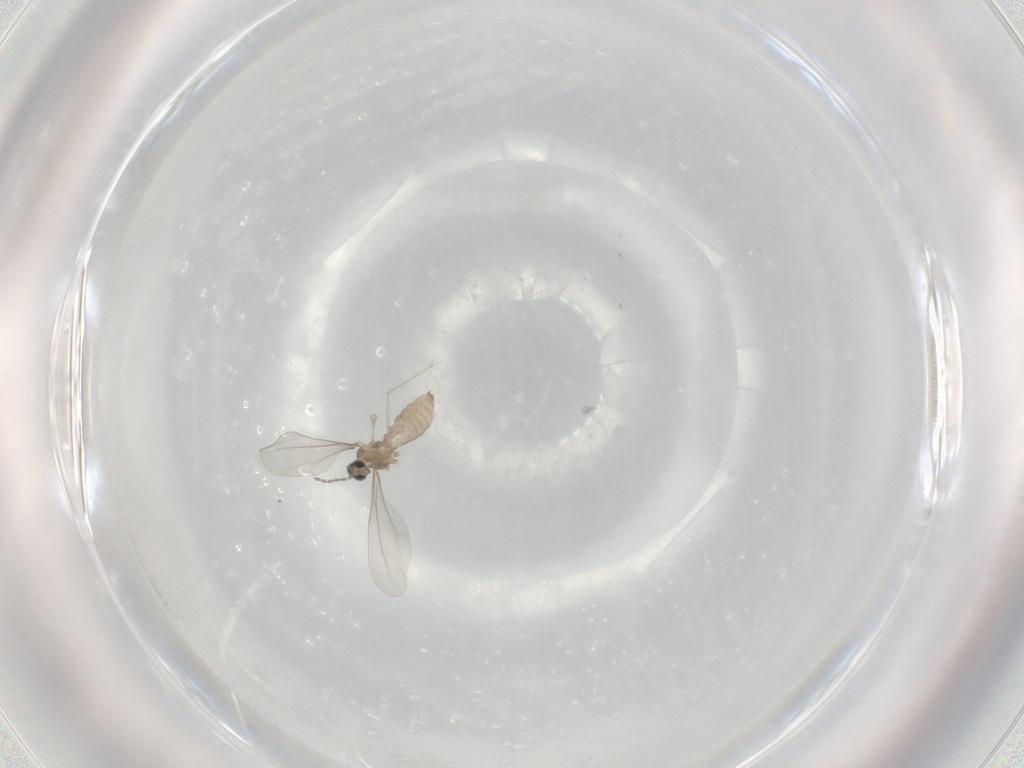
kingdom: Animalia
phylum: Arthropoda
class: Insecta
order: Diptera
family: Cecidomyiidae
